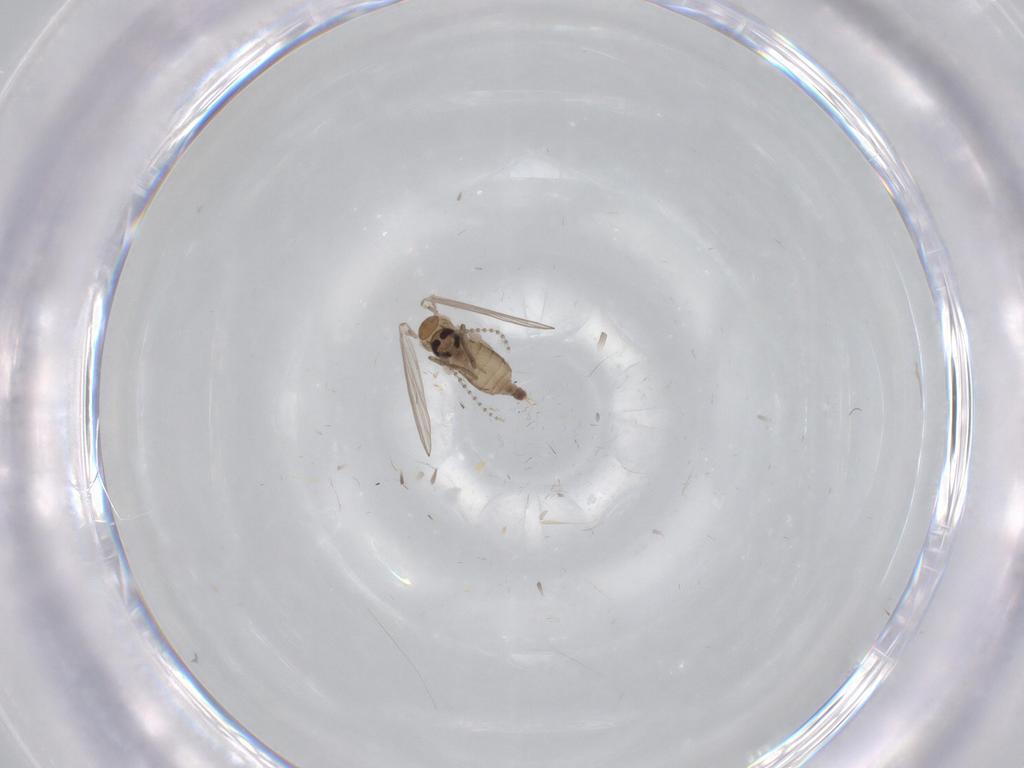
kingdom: Animalia
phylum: Arthropoda
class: Insecta
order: Diptera
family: Psychodidae
